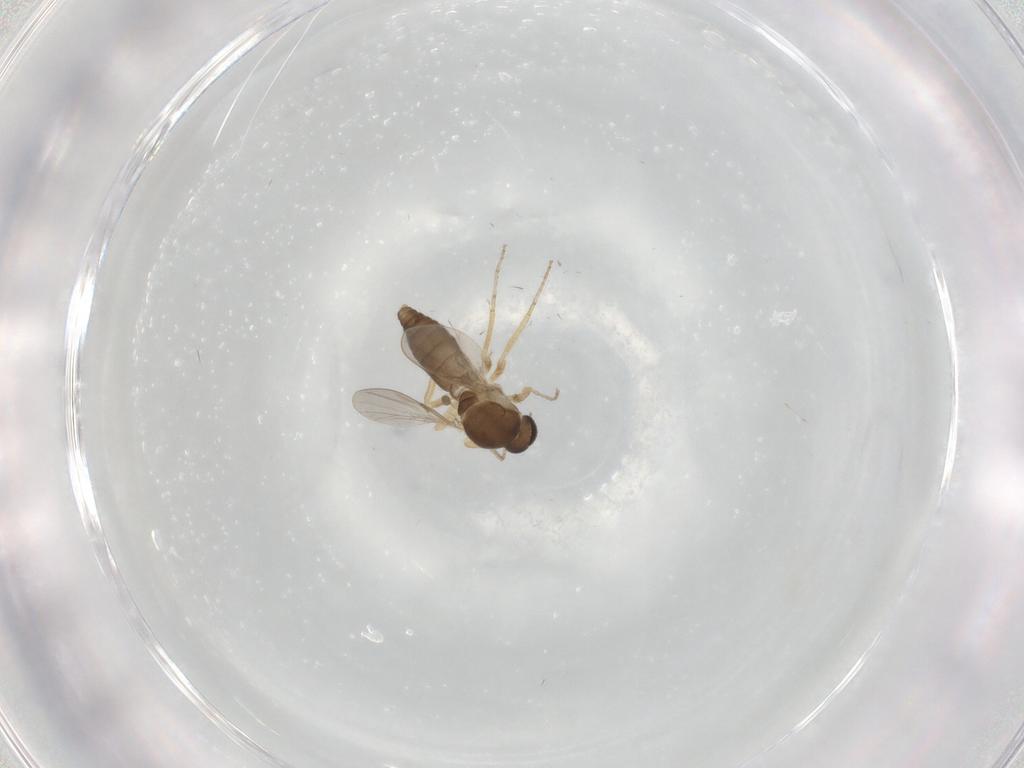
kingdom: Animalia
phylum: Arthropoda
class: Insecta
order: Diptera
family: Ceratopogonidae
